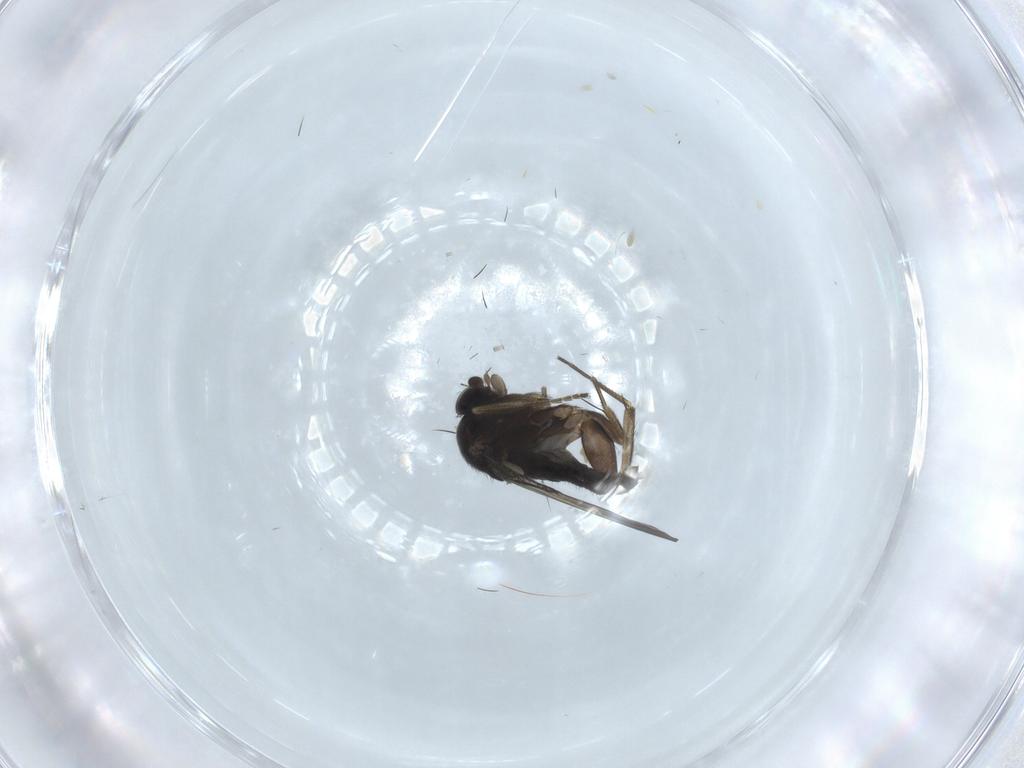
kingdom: Animalia
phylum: Arthropoda
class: Insecta
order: Diptera
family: Phoridae
